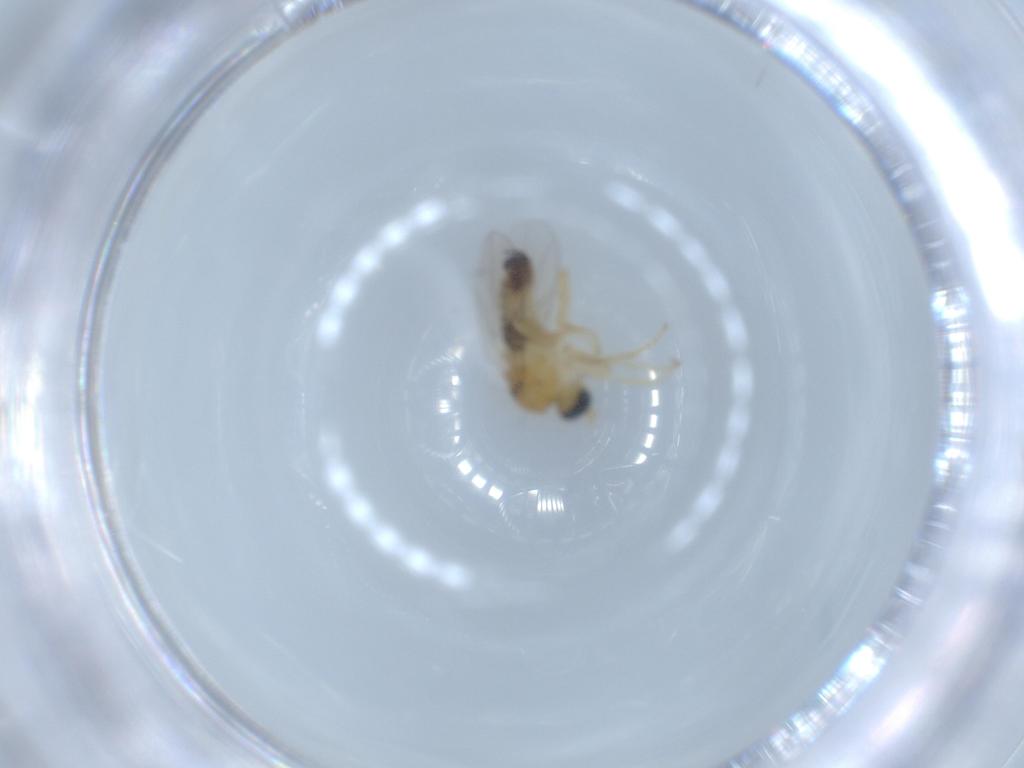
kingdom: Animalia
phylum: Arthropoda
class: Insecta
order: Diptera
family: Hybotidae
